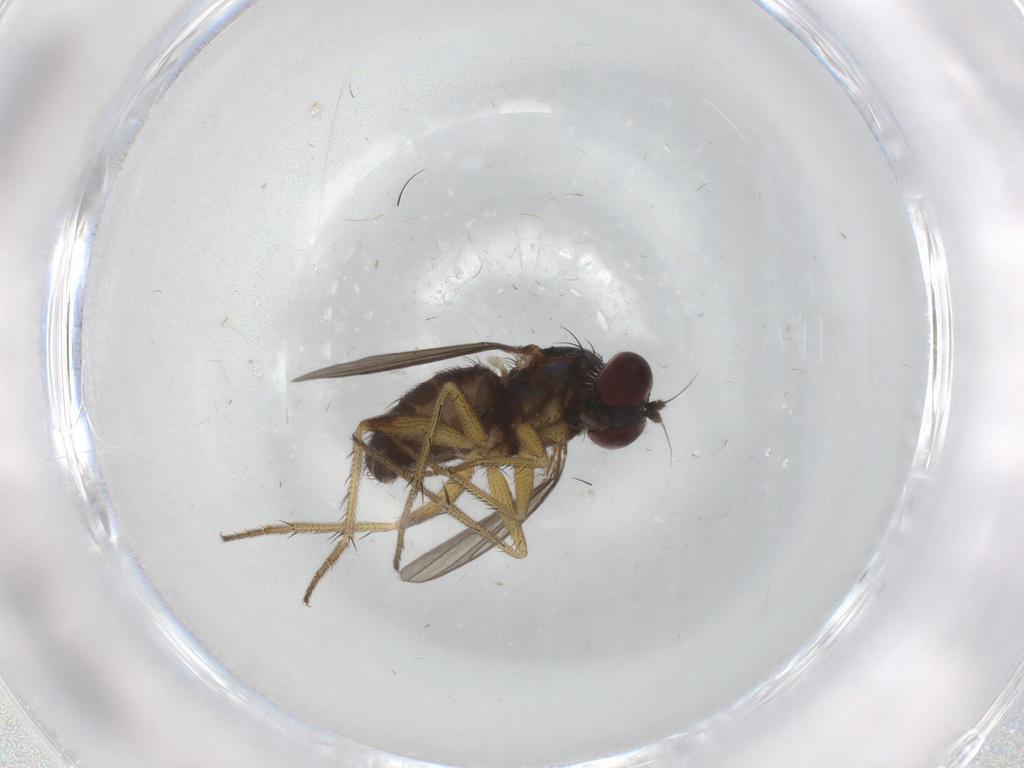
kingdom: Animalia
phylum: Arthropoda
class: Insecta
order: Diptera
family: Dolichopodidae
